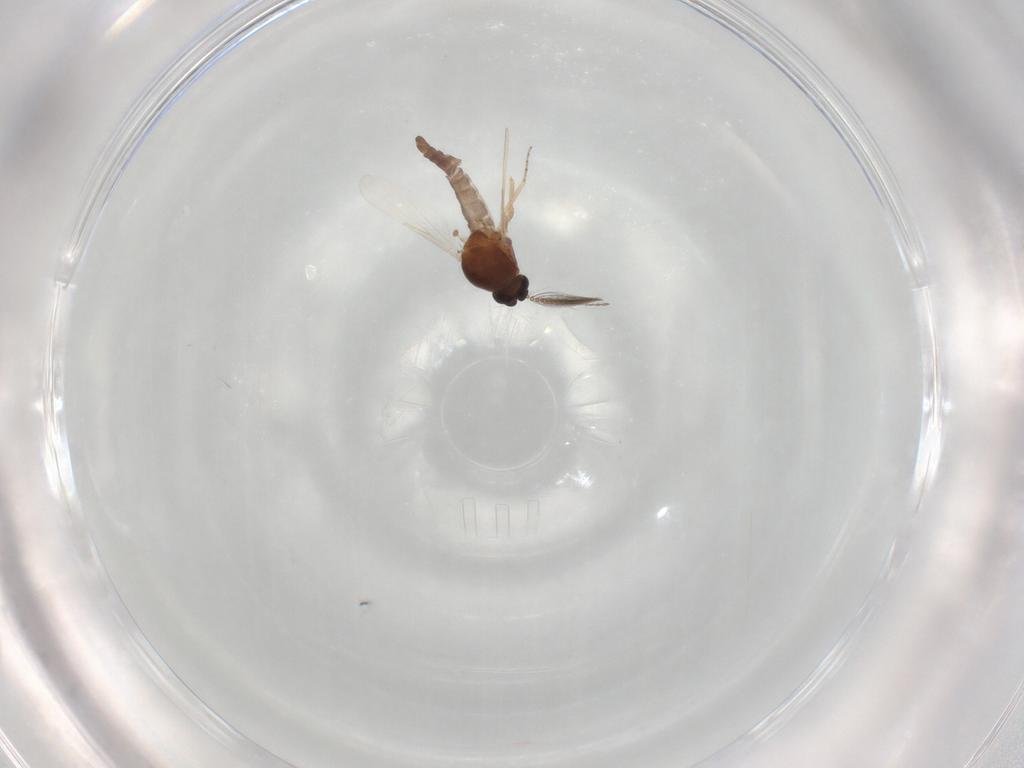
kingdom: Animalia
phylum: Arthropoda
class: Insecta
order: Diptera
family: Ceratopogonidae
